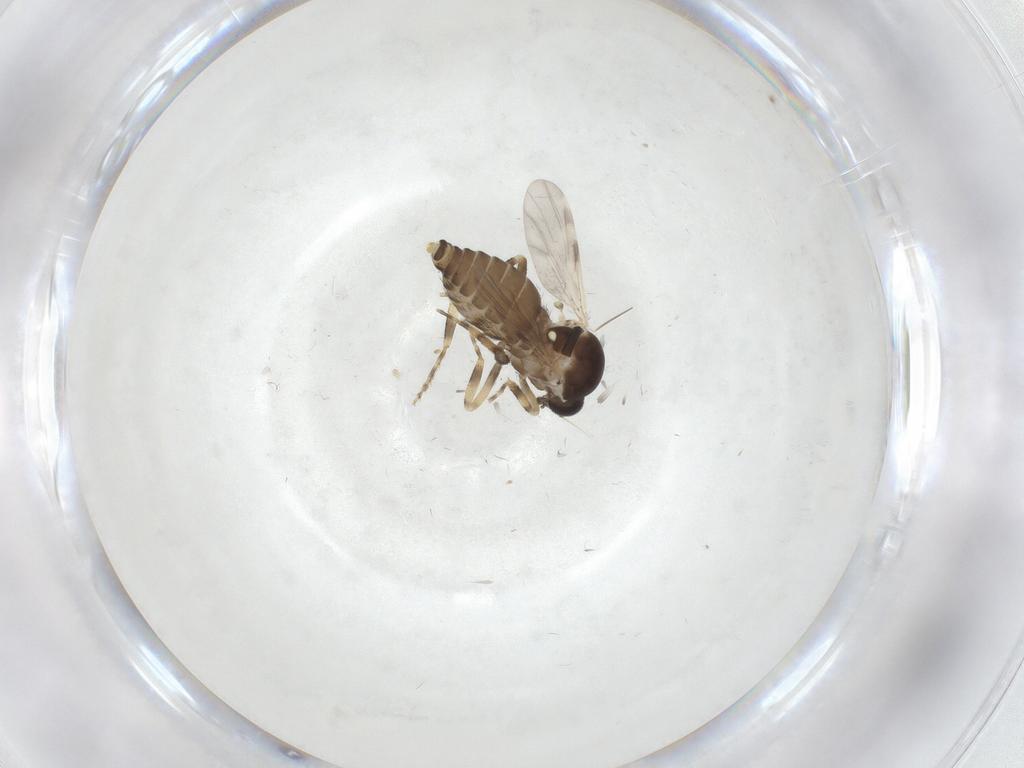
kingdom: Animalia
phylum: Arthropoda
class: Insecta
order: Diptera
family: Ceratopogonidae
